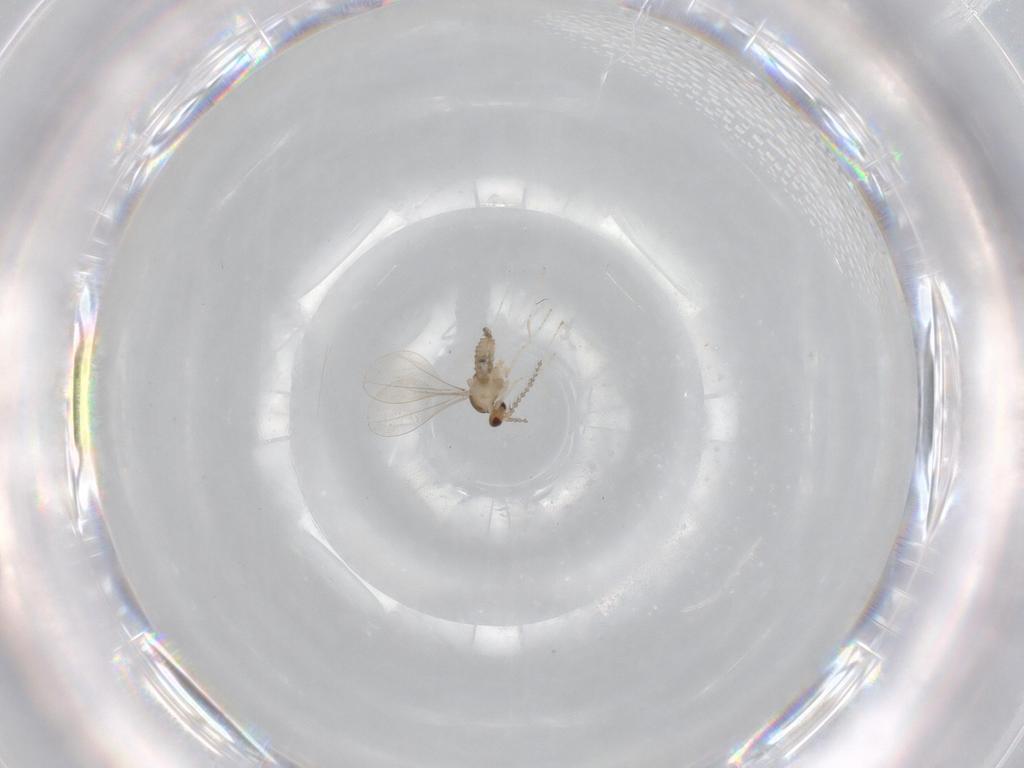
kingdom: Animalia
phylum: Arthropoda
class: Insecta
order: Diptera
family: Cecidomyiidae
